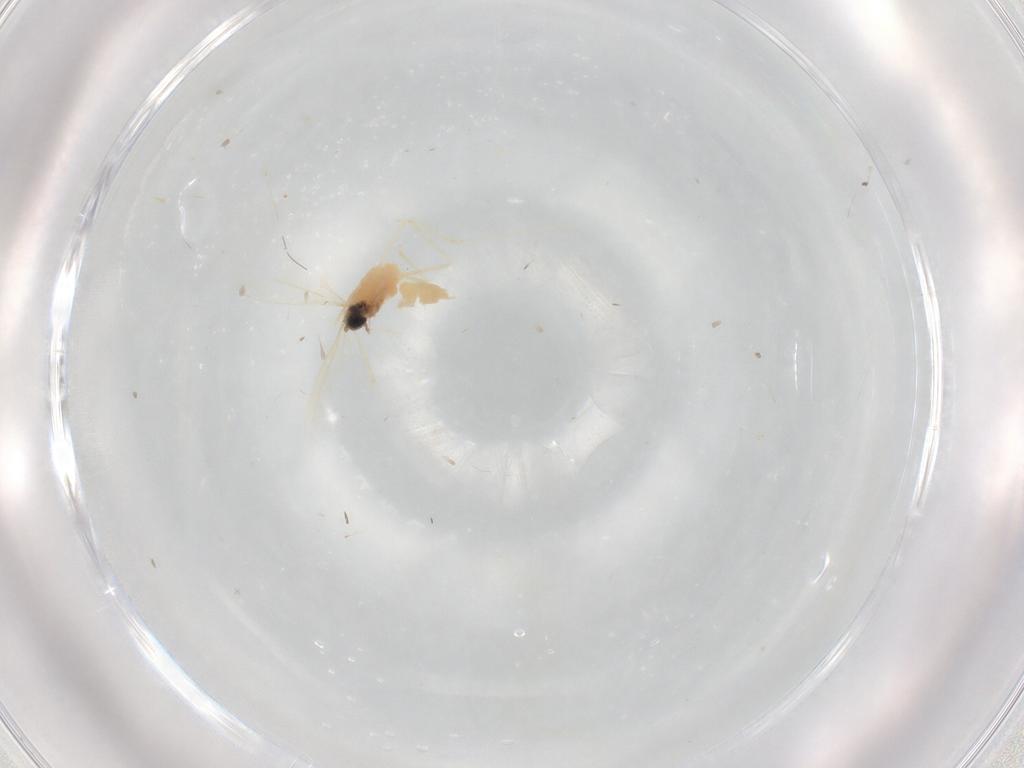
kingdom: Animalia
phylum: Arthropoda
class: Insecta
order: Diptera
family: Cecidomyiidae
